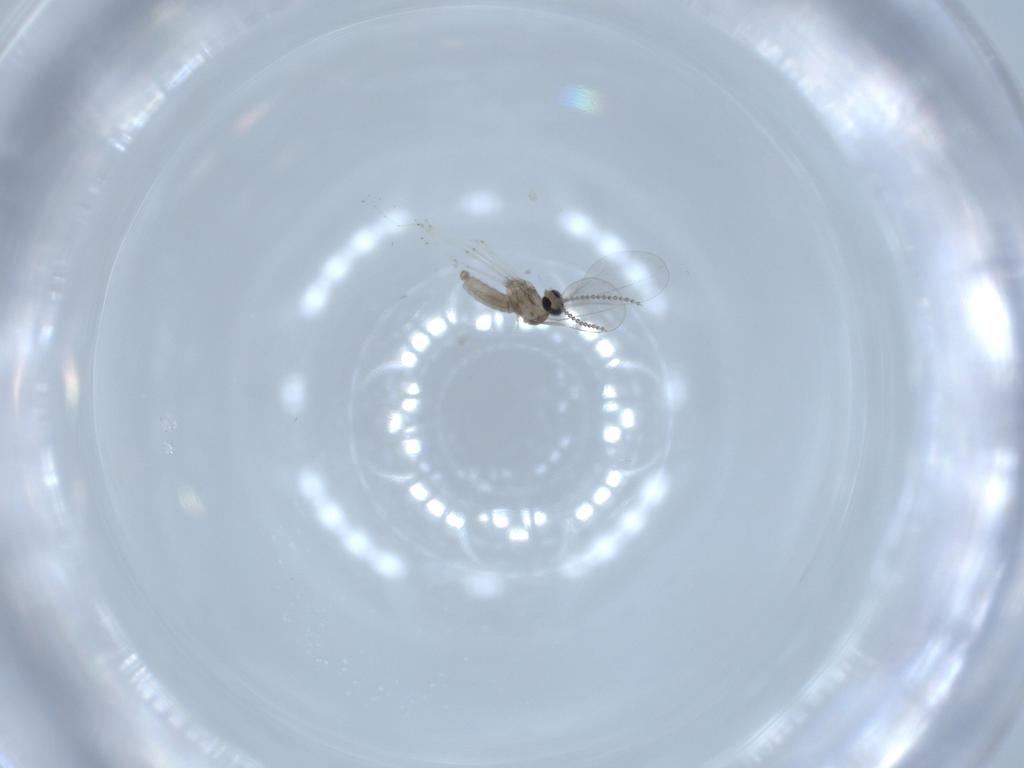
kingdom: Animalia
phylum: Arthropoda
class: Insecta
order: Diptera
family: Cecidomyiidae
